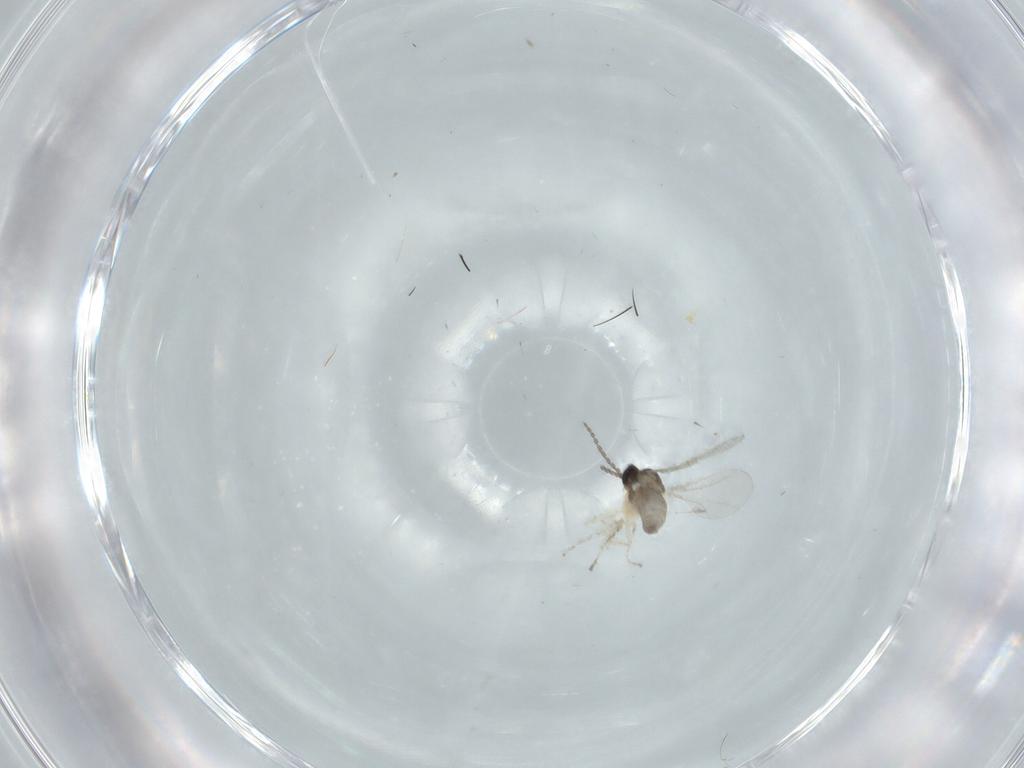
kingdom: Animalia
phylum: Arthropoda
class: Insecta
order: Diptera
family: Cecidomyiidae
